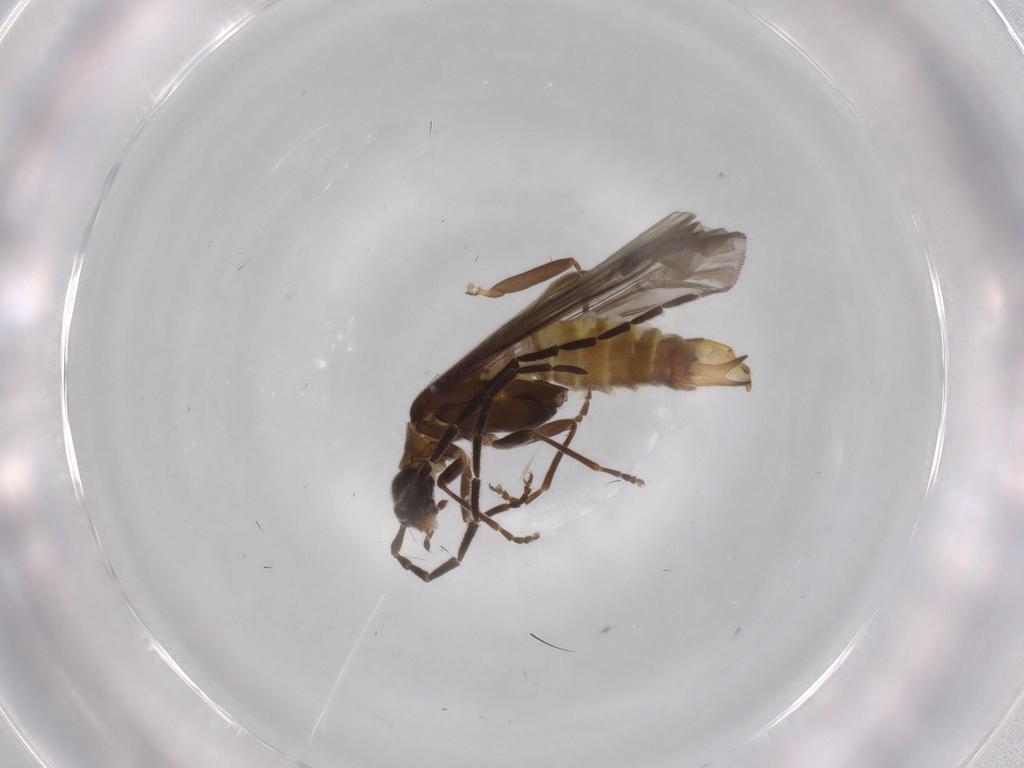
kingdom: Animalia
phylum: Arthropoda
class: Insecta
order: Coleoptera
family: Cantharidae
